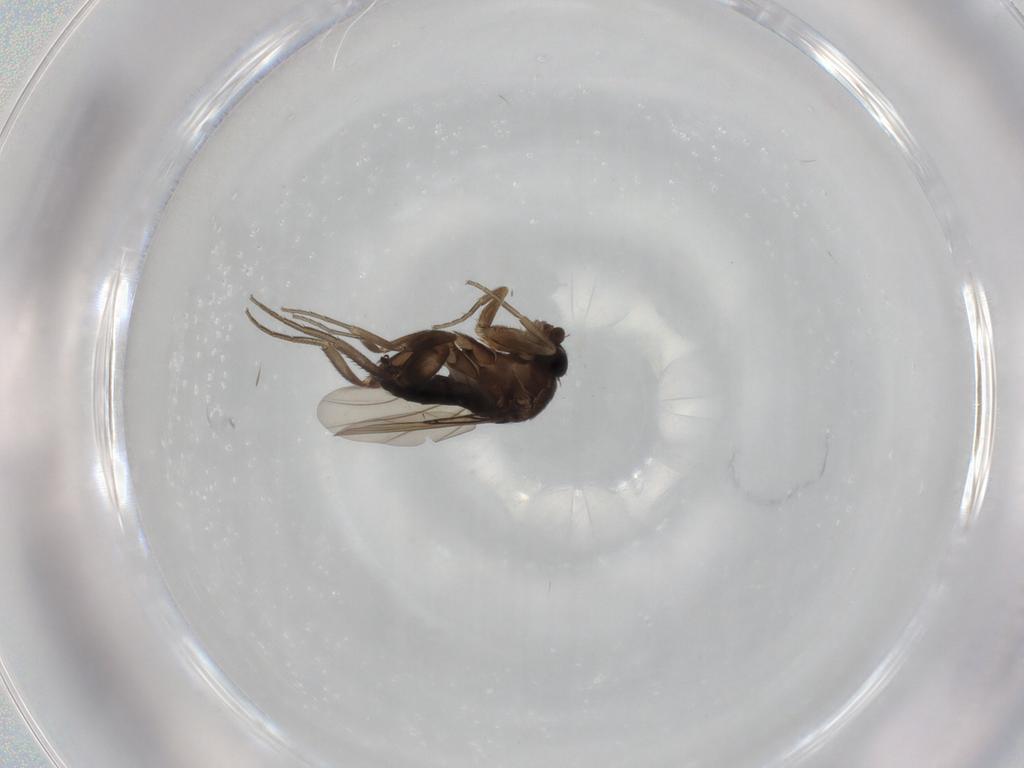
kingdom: Animalia
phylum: Arthropoda
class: Insecta
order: Diptera
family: Phoridae
